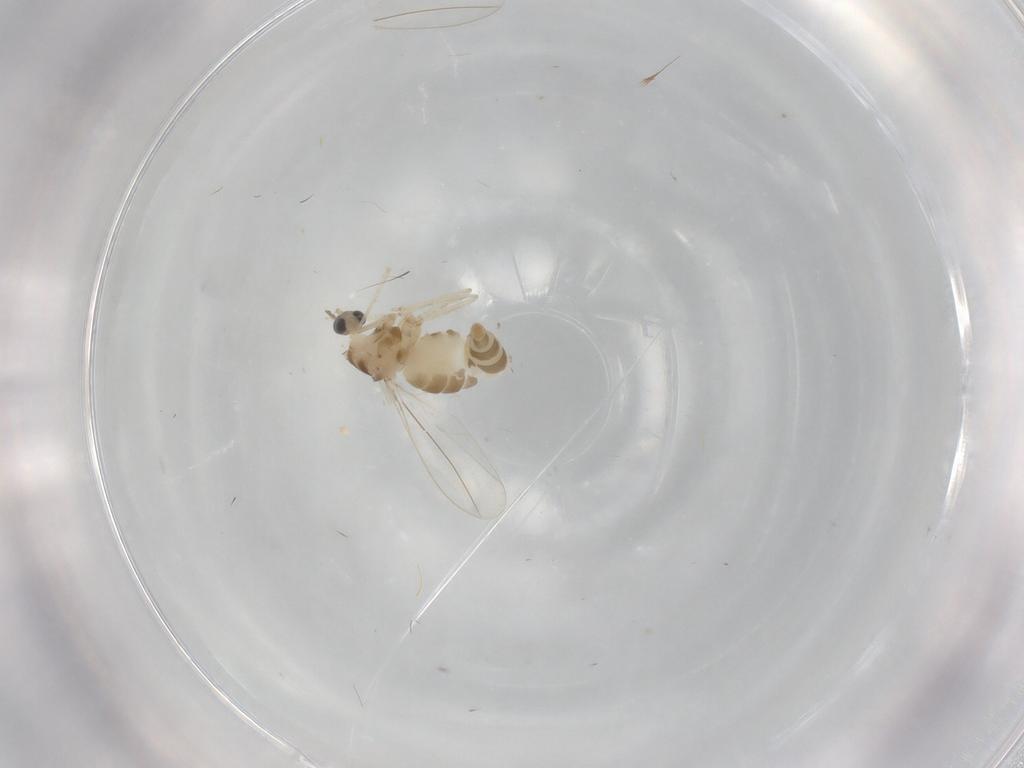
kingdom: Animalia
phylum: Arthropoda
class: Insecta
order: Diptera
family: Cecidomyiidae
